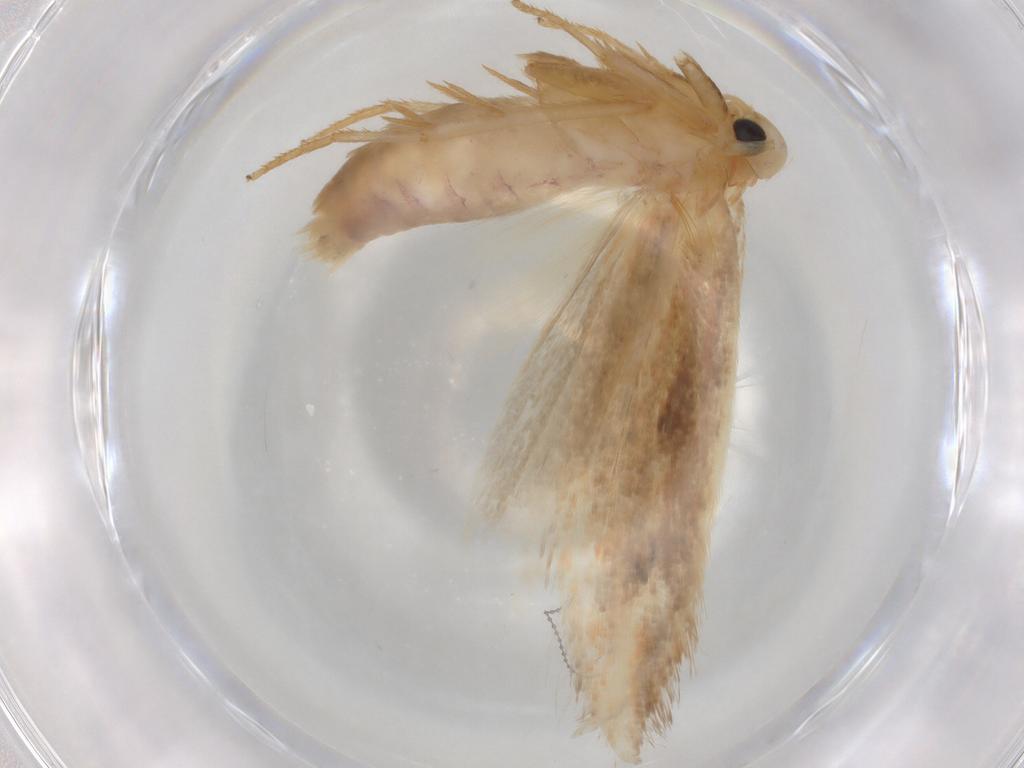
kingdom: Animalia
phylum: Arthropoda
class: Insecta
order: Lepidoptera
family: Geometridae
